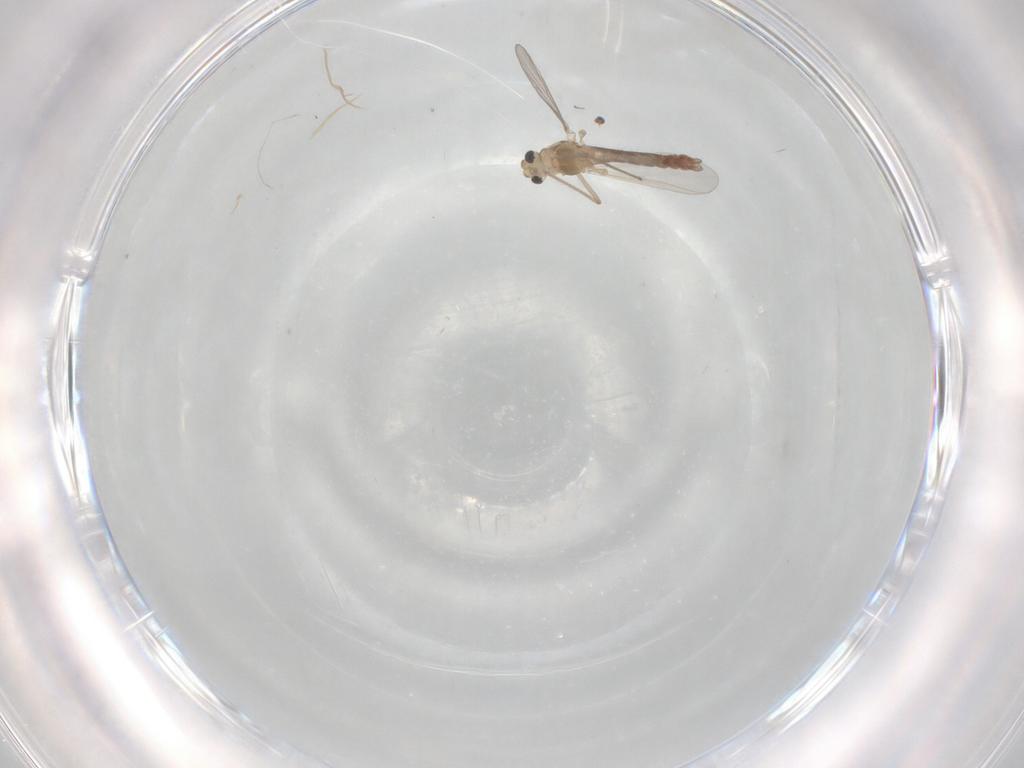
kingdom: Animalia
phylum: Arthropoda
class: Insecta
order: Diptera
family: Chironomidae
